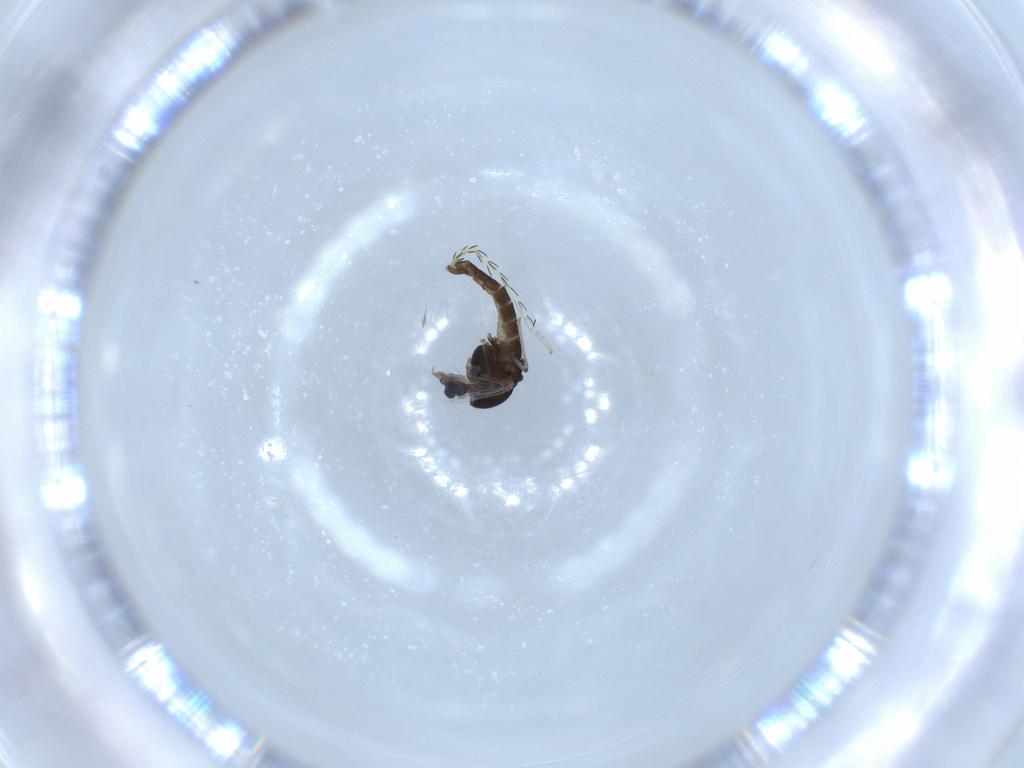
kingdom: Animalia
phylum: Arthropoda
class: Insecta
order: Diptera
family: Chironomidae
